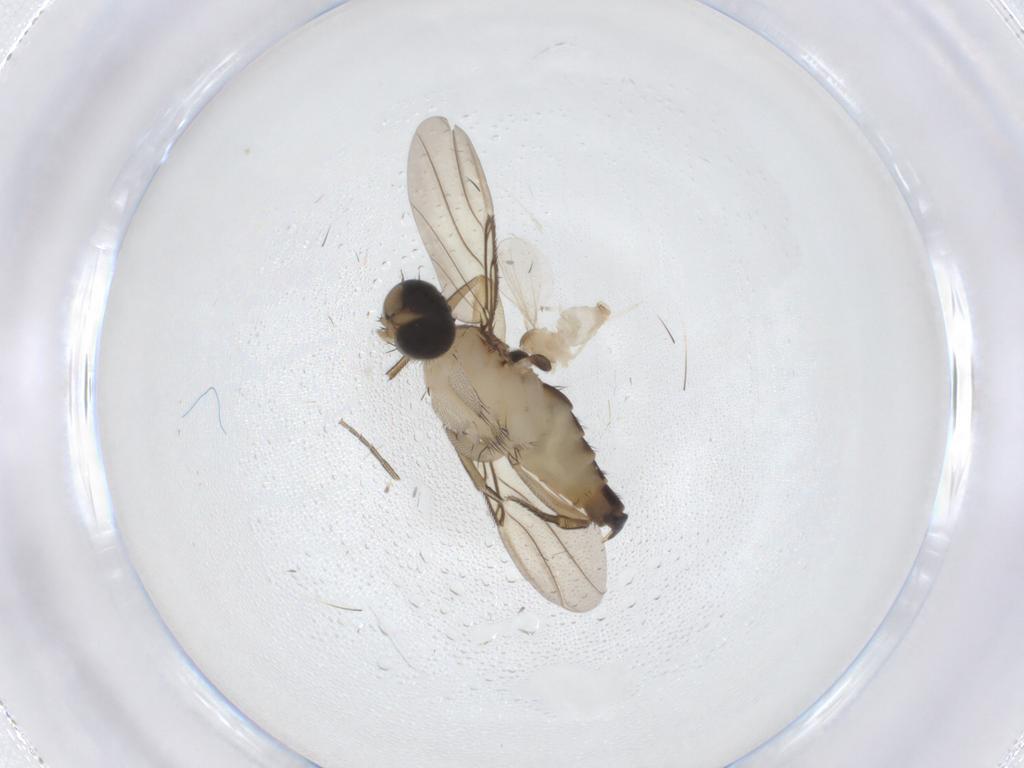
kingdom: Animalia
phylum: Arthropoda
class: Insecta
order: Diptera
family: Cecidomyiidae
